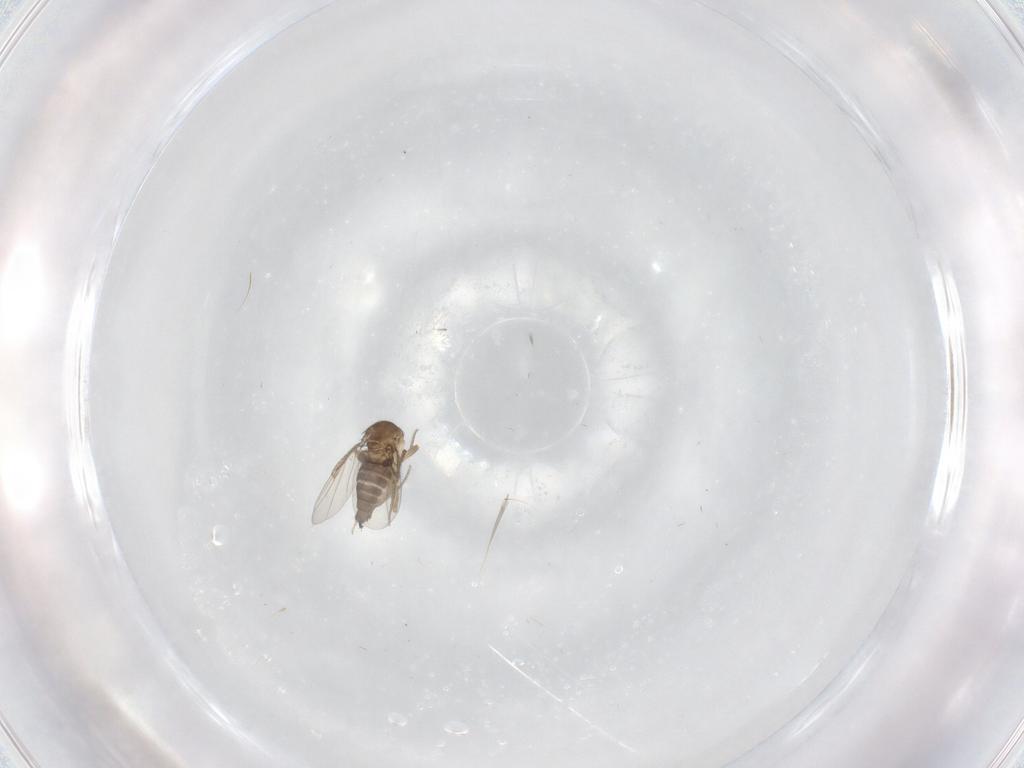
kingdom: Animalia
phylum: Arthropoda
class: Insecta
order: Diptera
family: Phoridae
